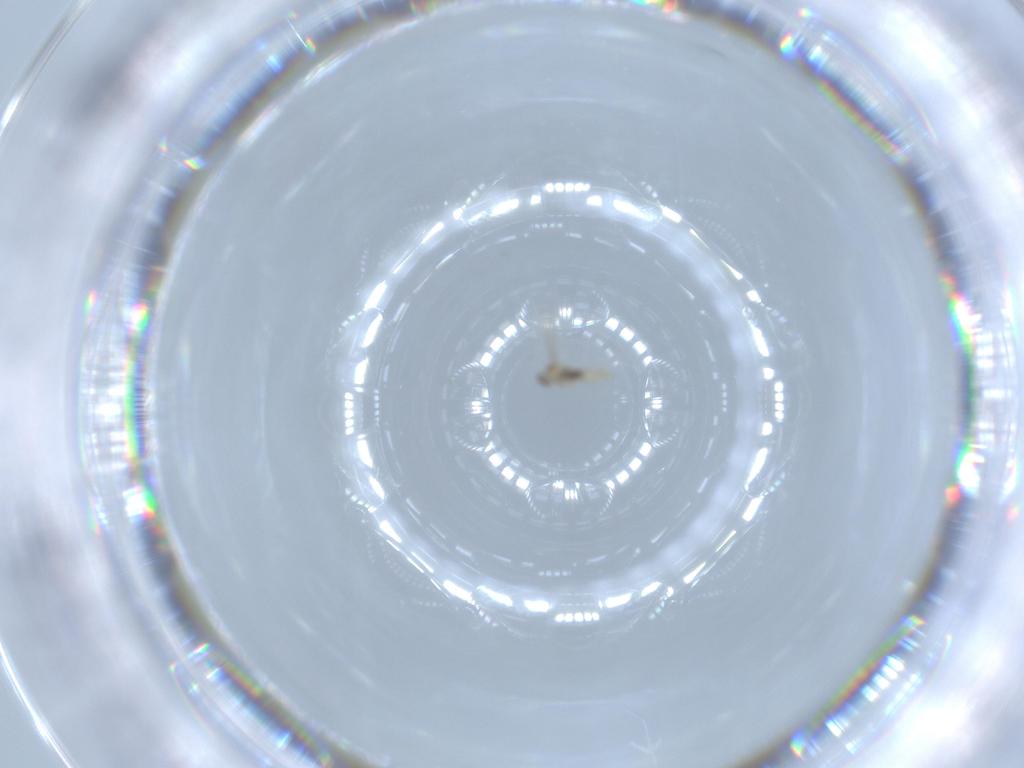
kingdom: Animalia
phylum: Arthropoda
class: Insecta
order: Diptera
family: Cecidomyiidae
